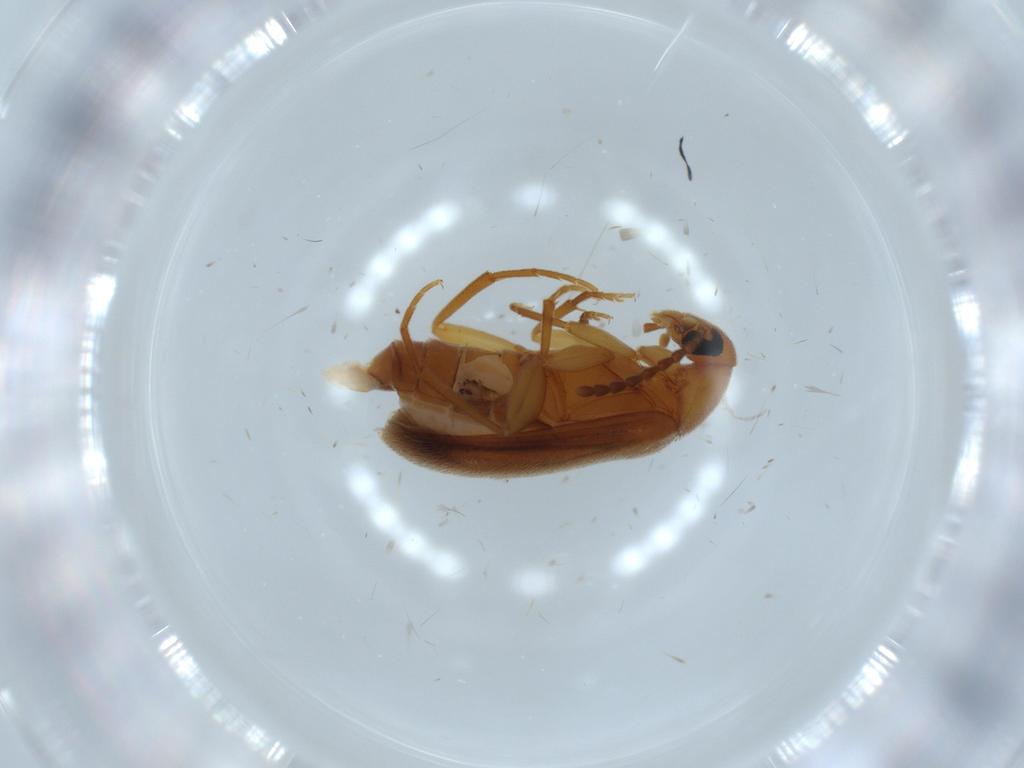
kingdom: Animalia
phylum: Arthropoda
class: Insecta
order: Coleoptera
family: Scraptiidae
